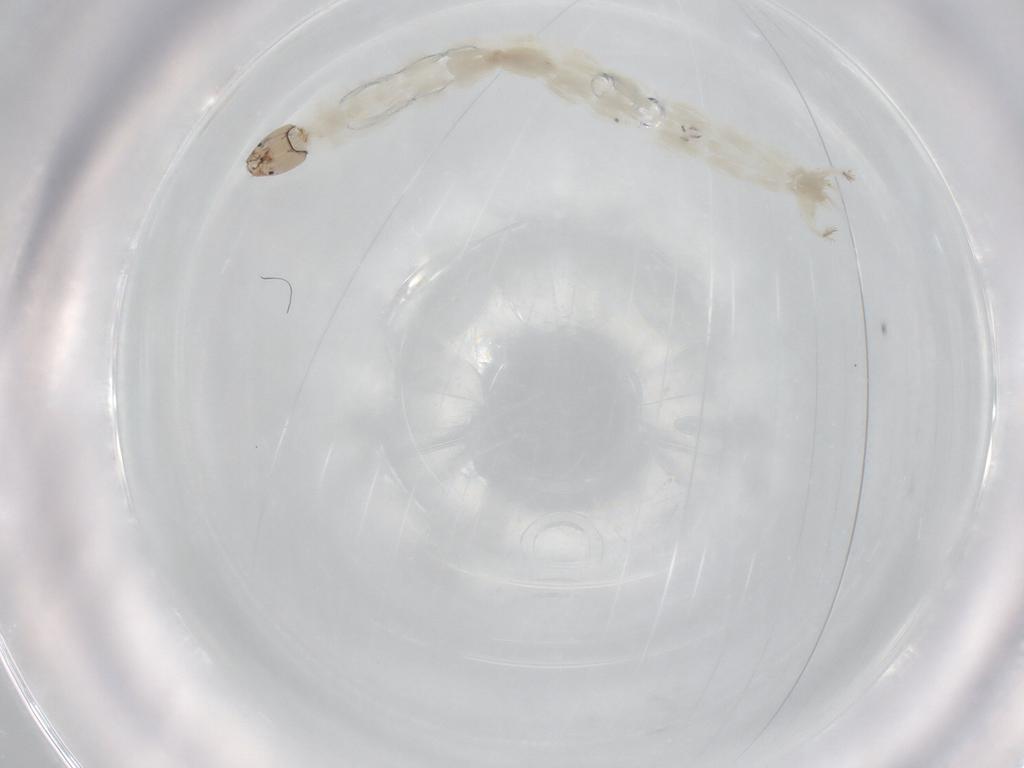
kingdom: Animalia
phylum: Arthropoda
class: Insecta
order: Diptera
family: Chironomidae
